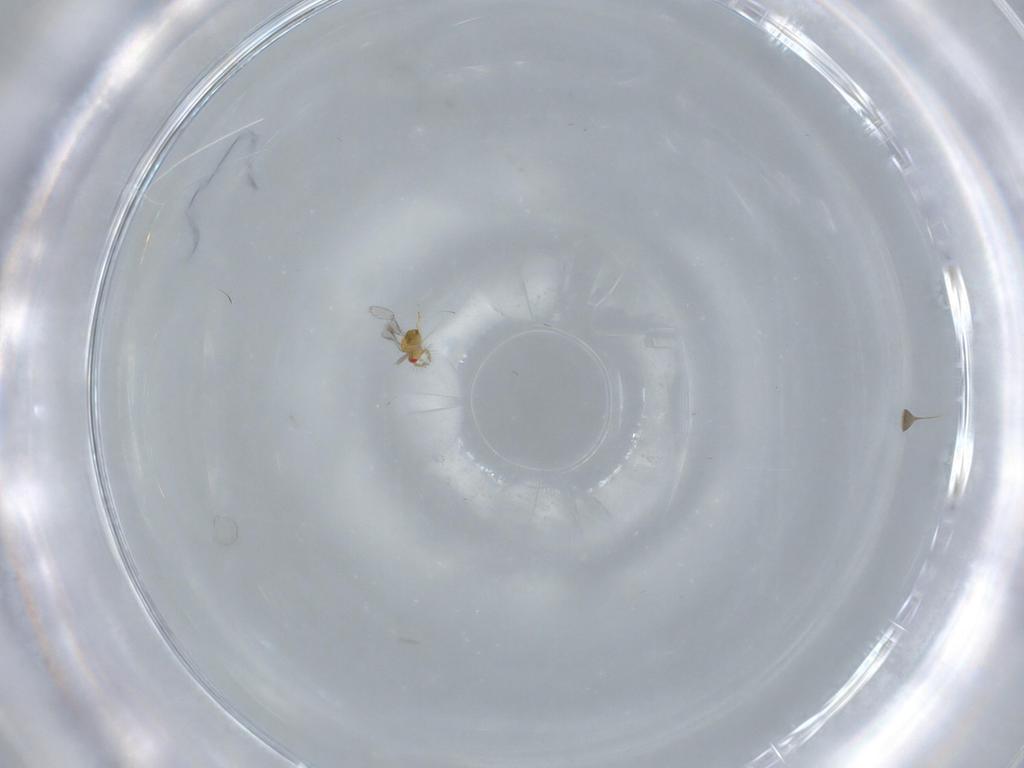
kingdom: Animalia
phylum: Arthropoda
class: Insecta
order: Hymenoptera
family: Trichogrammatidae
